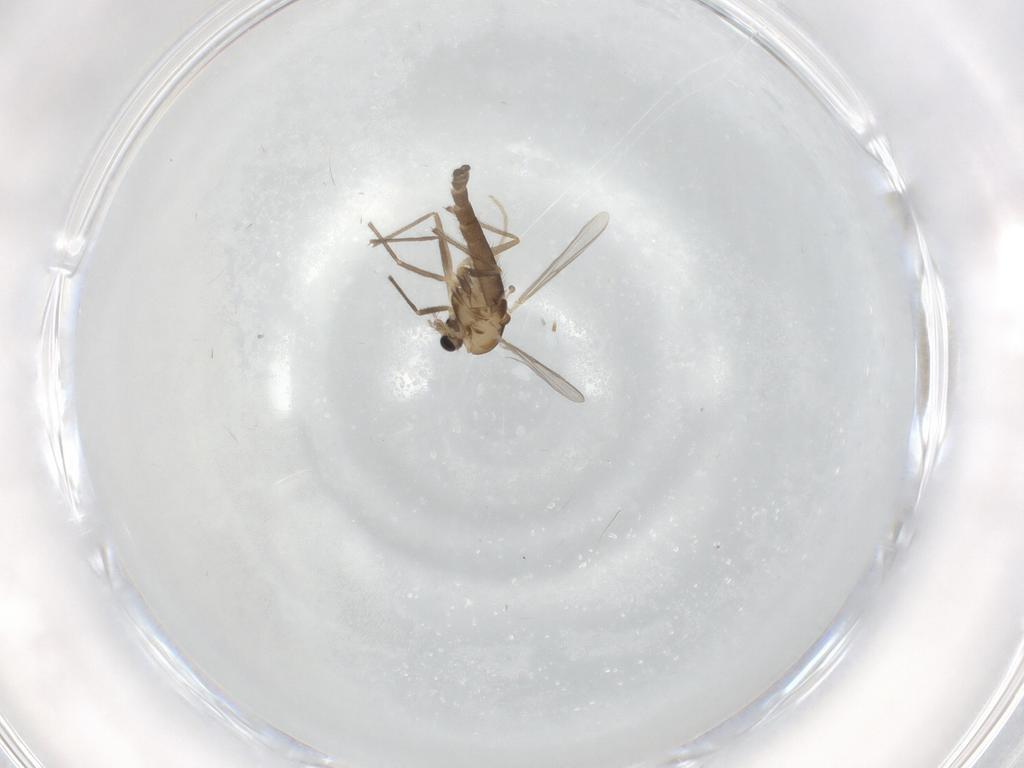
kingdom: Animalia
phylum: Arthropoda
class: Insecta
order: Diptera
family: Chironomidae
